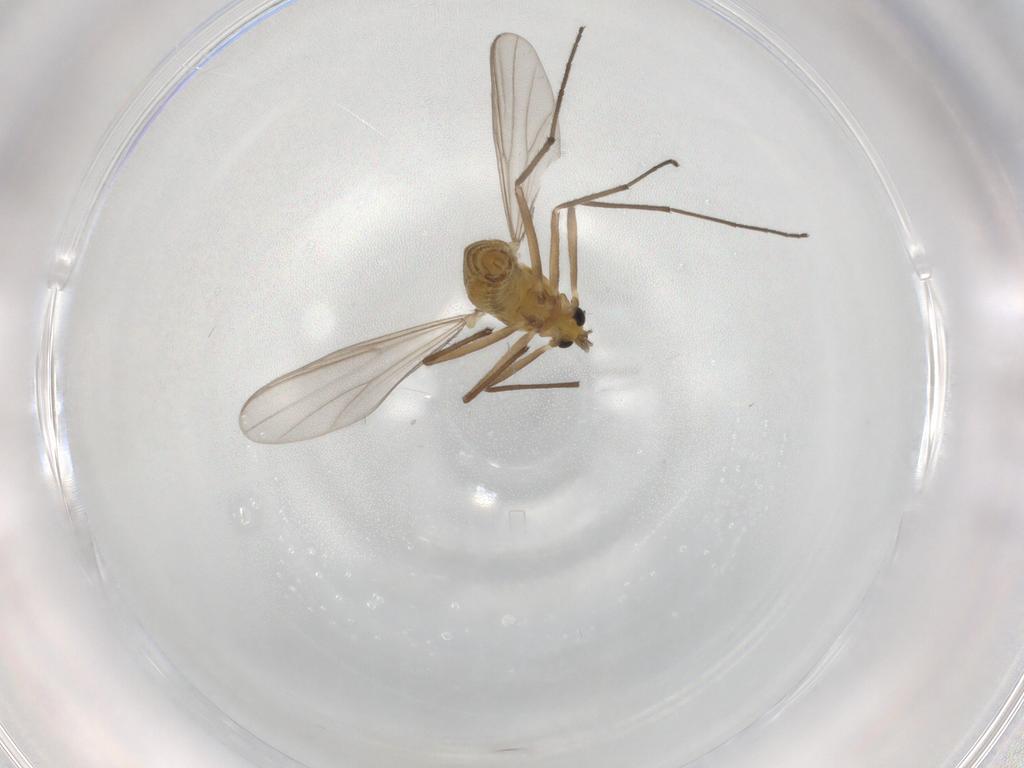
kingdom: Animalia
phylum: Arthropoda
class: Insecta
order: Diptera
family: Chironomidae
